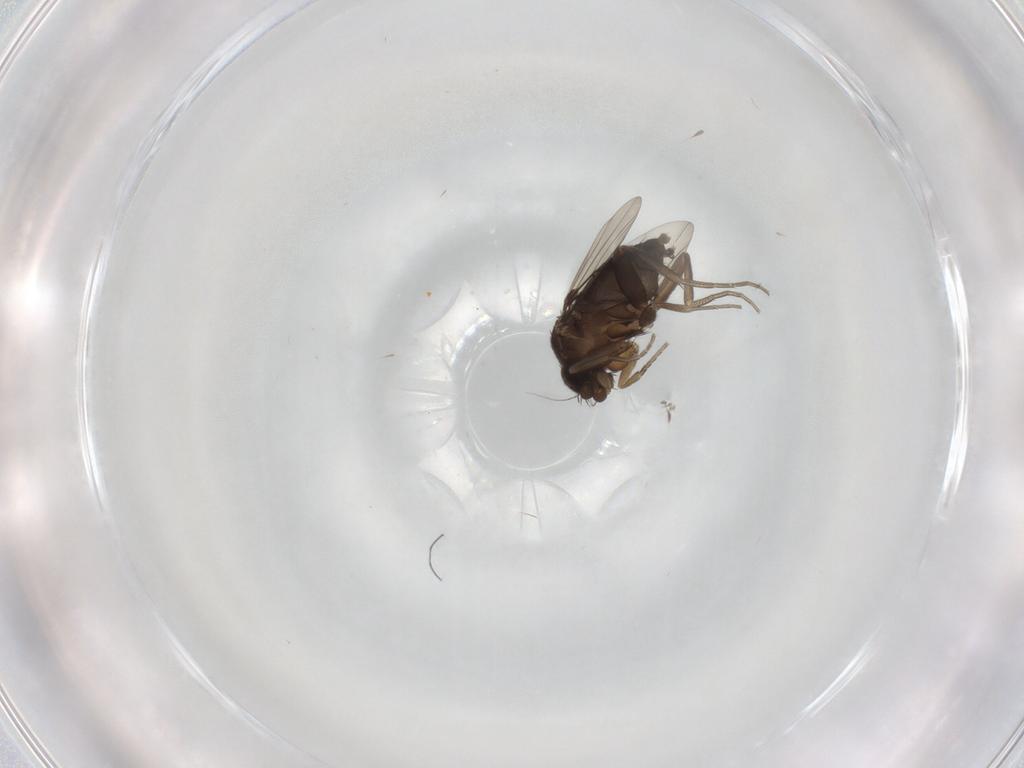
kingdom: Animalia
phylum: Arthropoda
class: Insecta
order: Diptera
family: Phoridae
